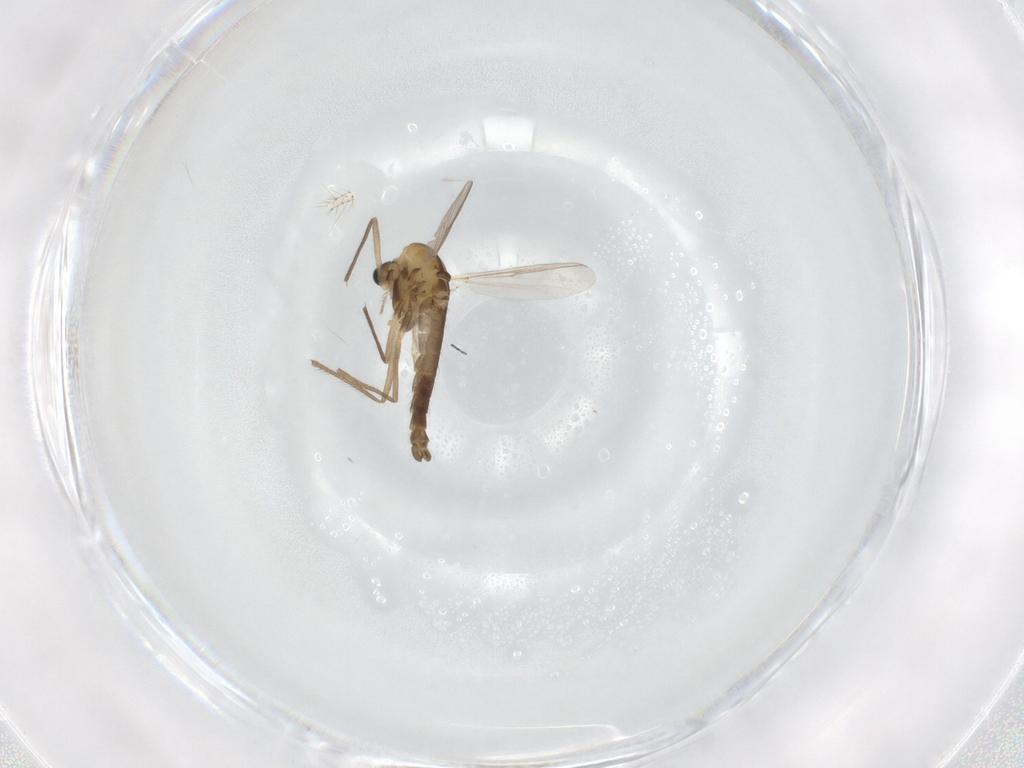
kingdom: Animalia
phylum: Arthropoda
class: Insecta
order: Diptera
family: Chironomidae
